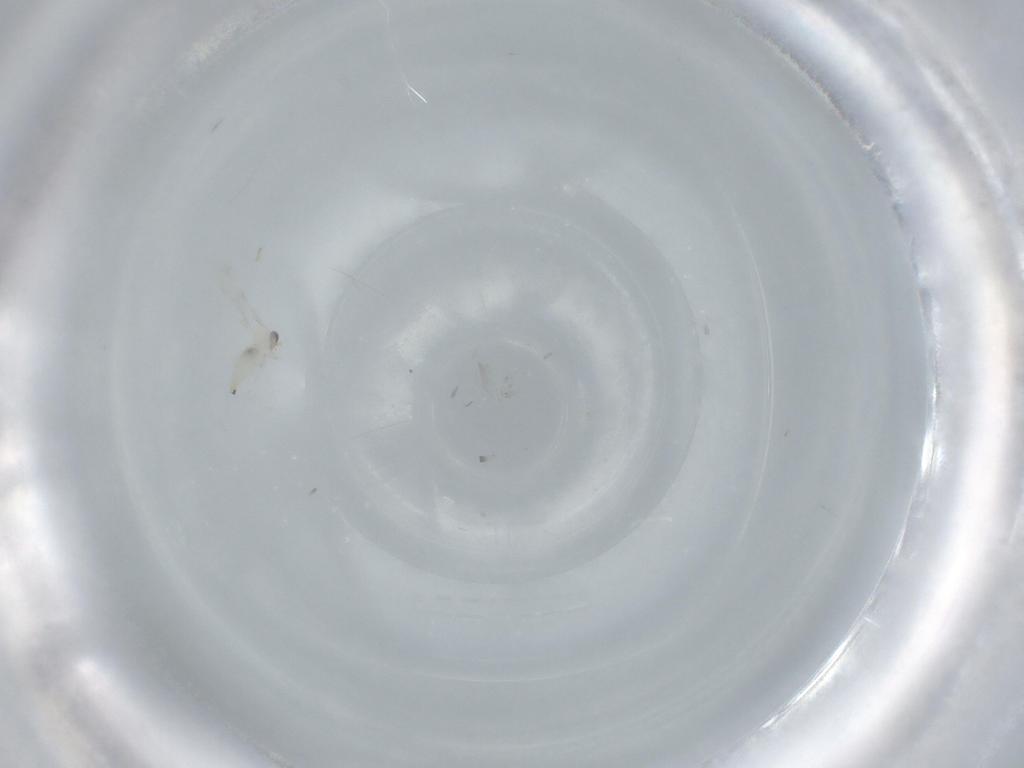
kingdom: Animalia
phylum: Arthropoda
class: Insecta
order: Diptera
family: Cecidomyiidae
